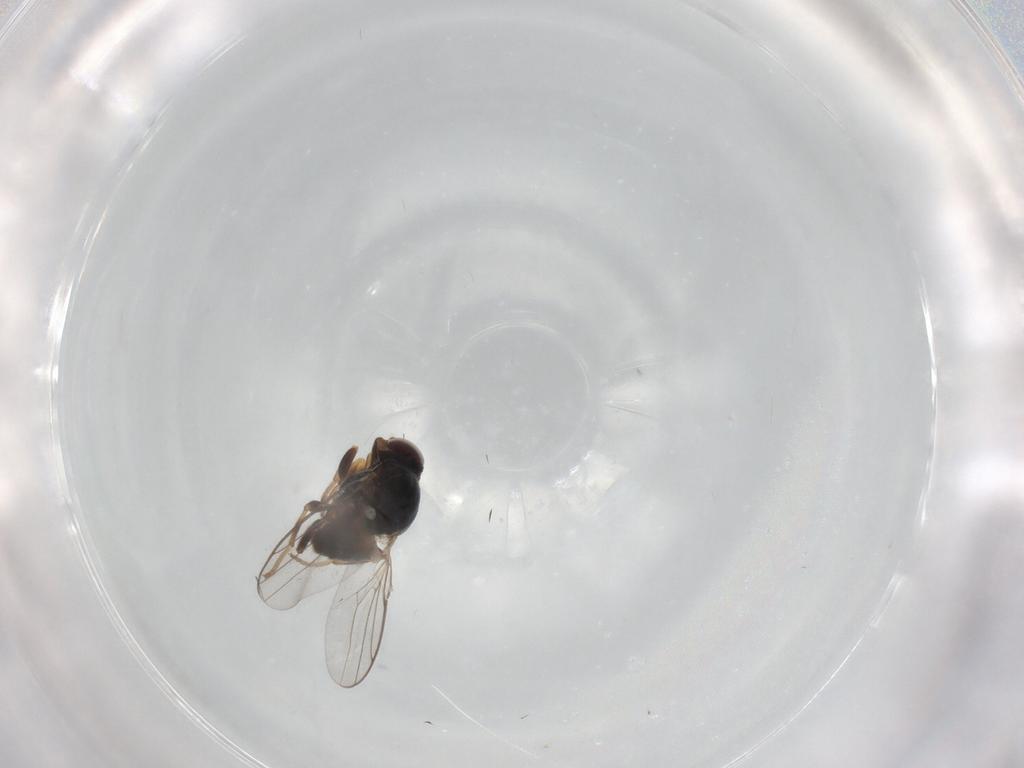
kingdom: Animalia
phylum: Arthropoda
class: Insecta
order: Diptera
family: Chloropidae
